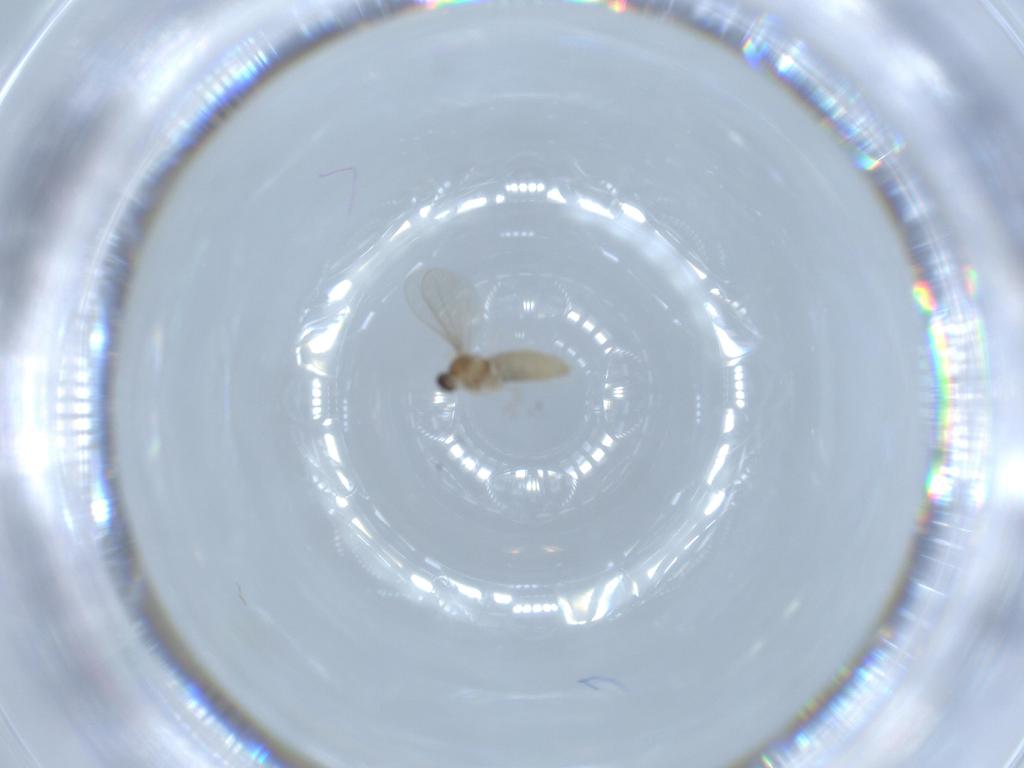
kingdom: Animalia
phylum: Arthropoda
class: Insecta
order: Diptera
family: Cecidomyiidae
